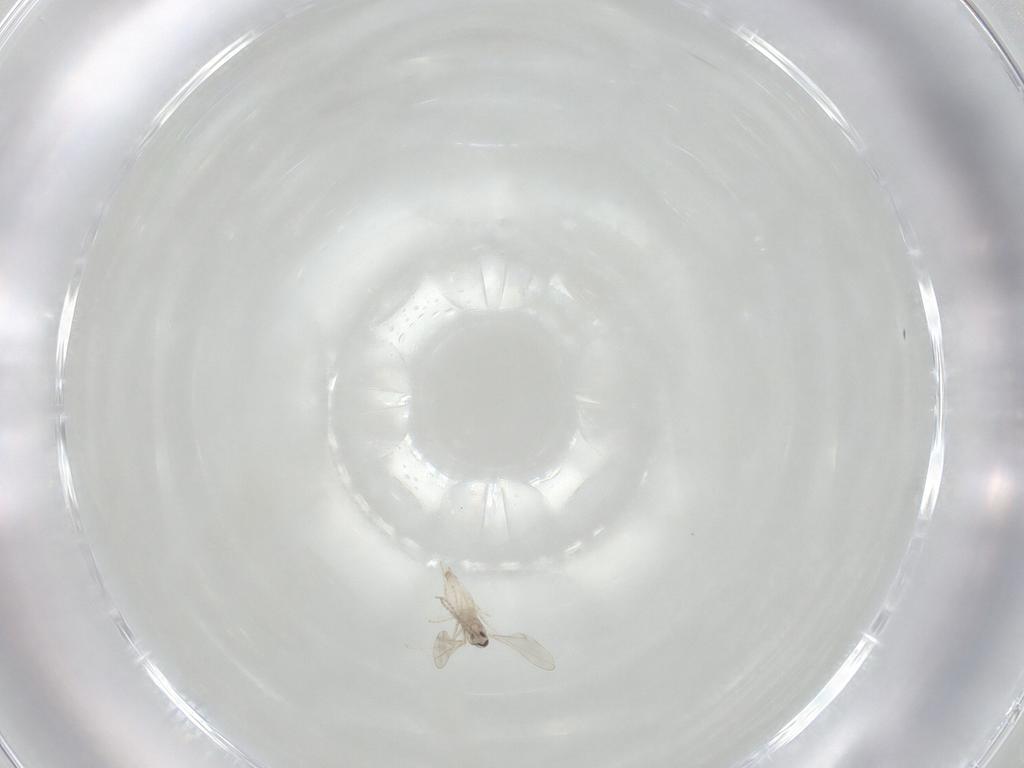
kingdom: Animalia
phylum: Arthropoda
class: Insecta
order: Diptera
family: Cecidomyiidae
